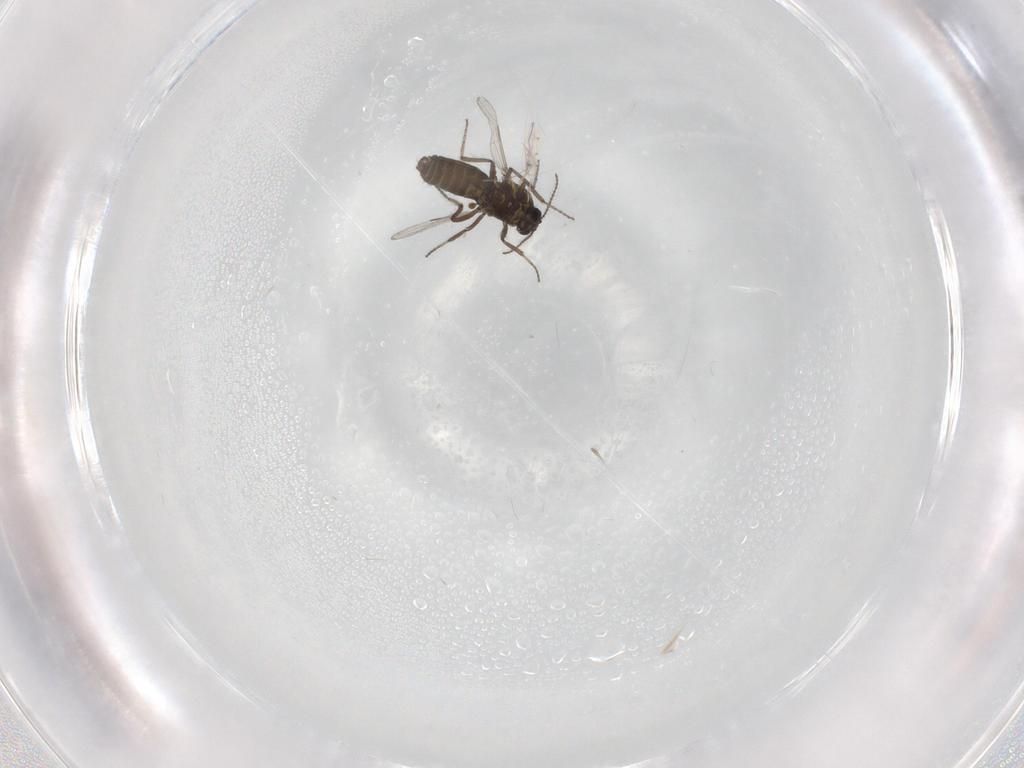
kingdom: Animalia
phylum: Arthropoda
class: Insecta
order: Diptera
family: Ceratopogonidae
